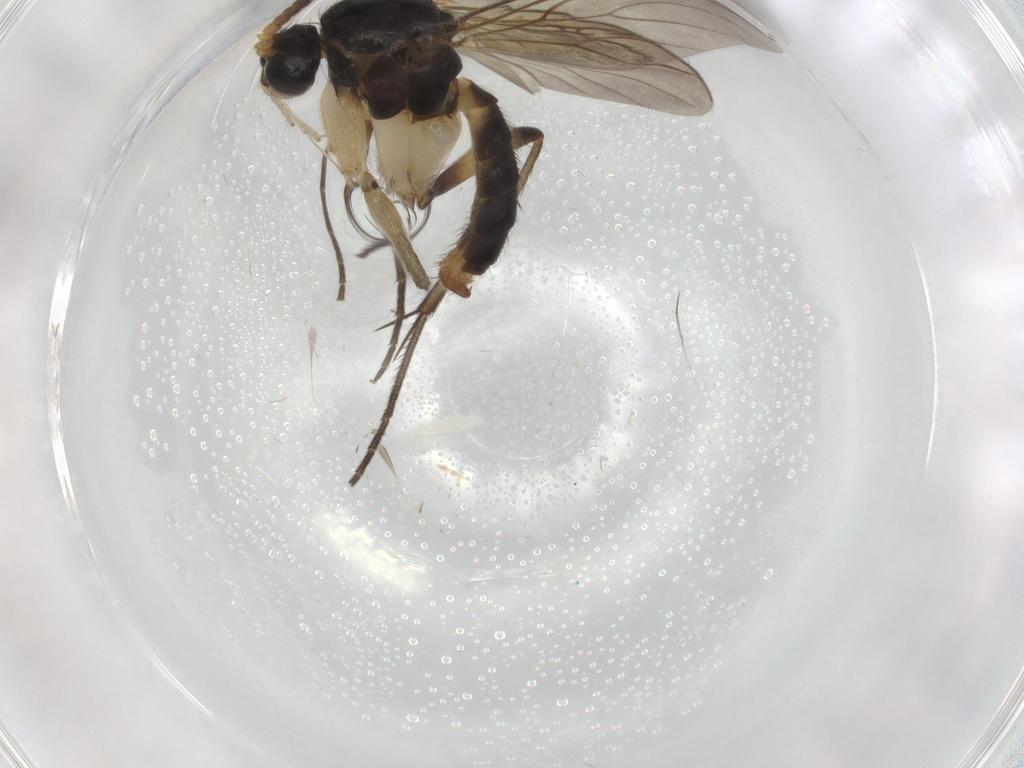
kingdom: Animalia
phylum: Arthropoda
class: Insecta
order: Diptera
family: Mycetophilidae
